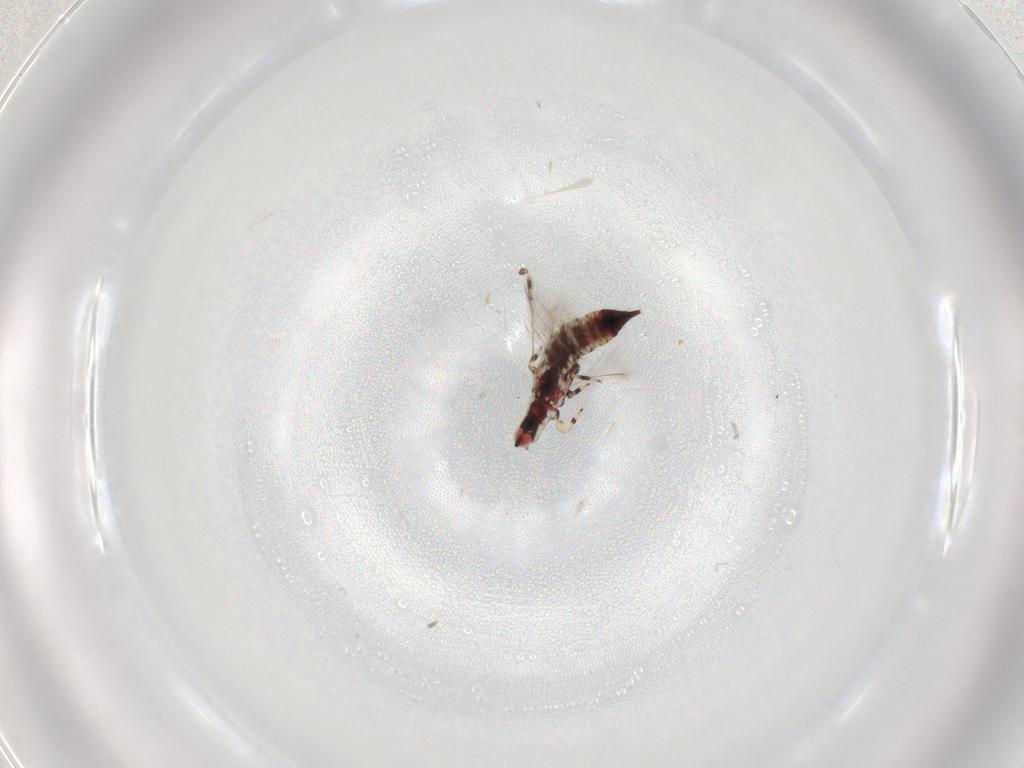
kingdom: Animalia
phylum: Arthropoda
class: Insecta
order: Thysanoptera
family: Phlaeothripidae
